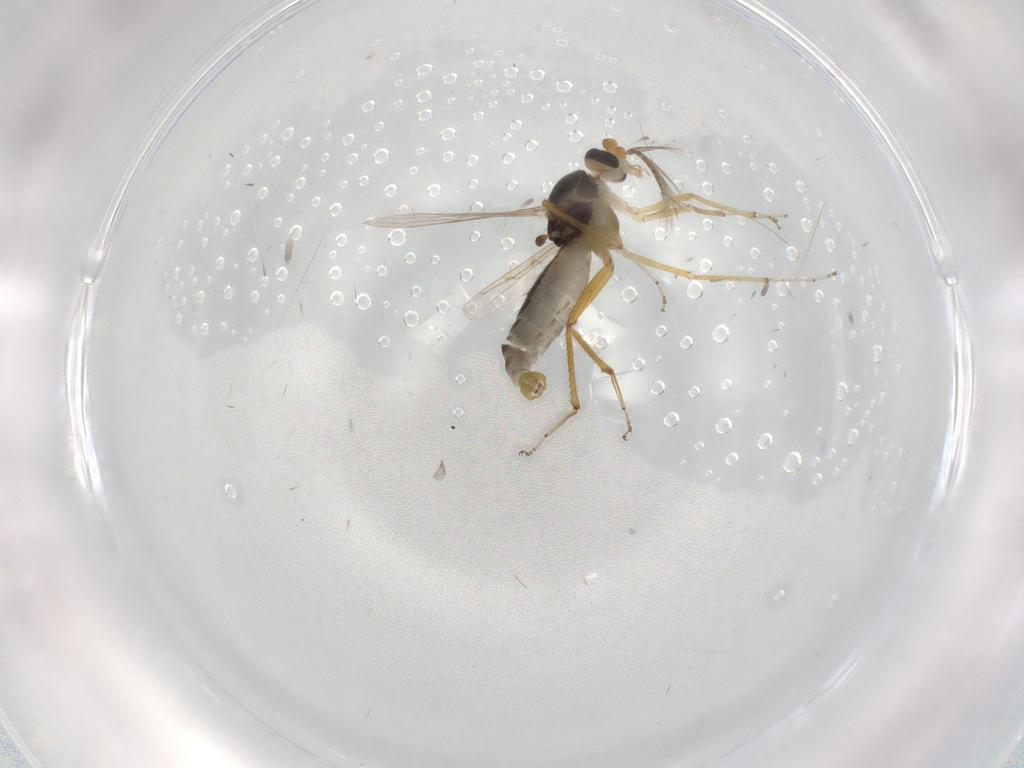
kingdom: Animalia
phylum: Arthropoda
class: Insecta
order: Diptera
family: Ceratopogonidae
